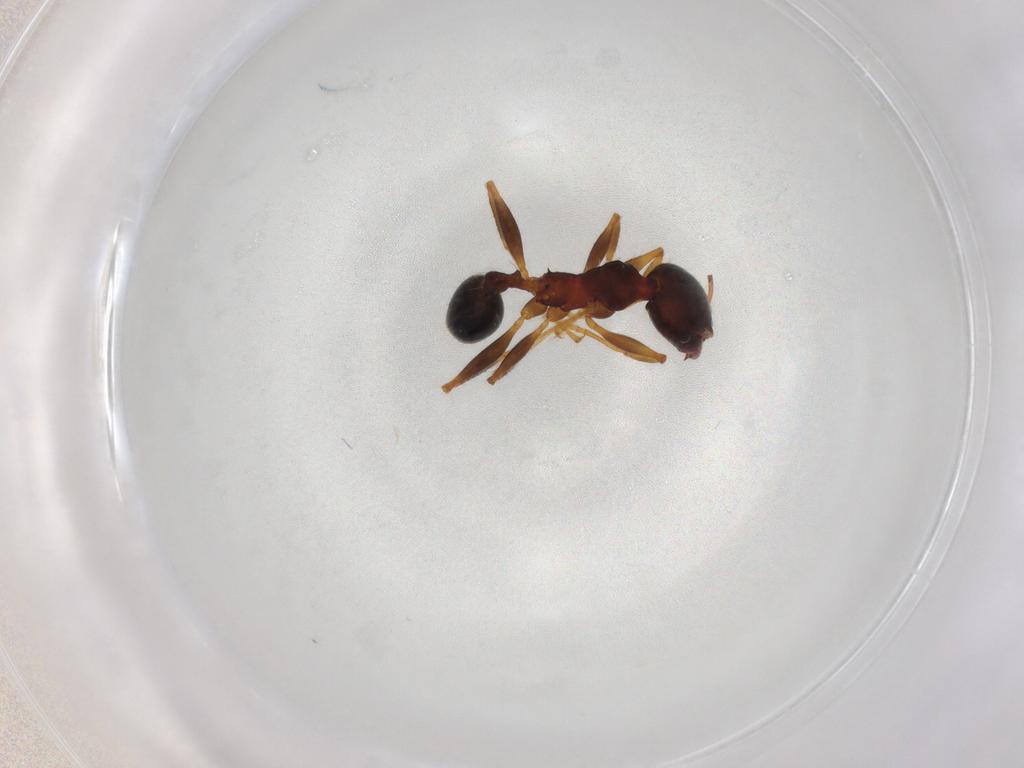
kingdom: Animalia
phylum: Arthropoda
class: Insecta
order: Hymenoptera
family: Formicidae
